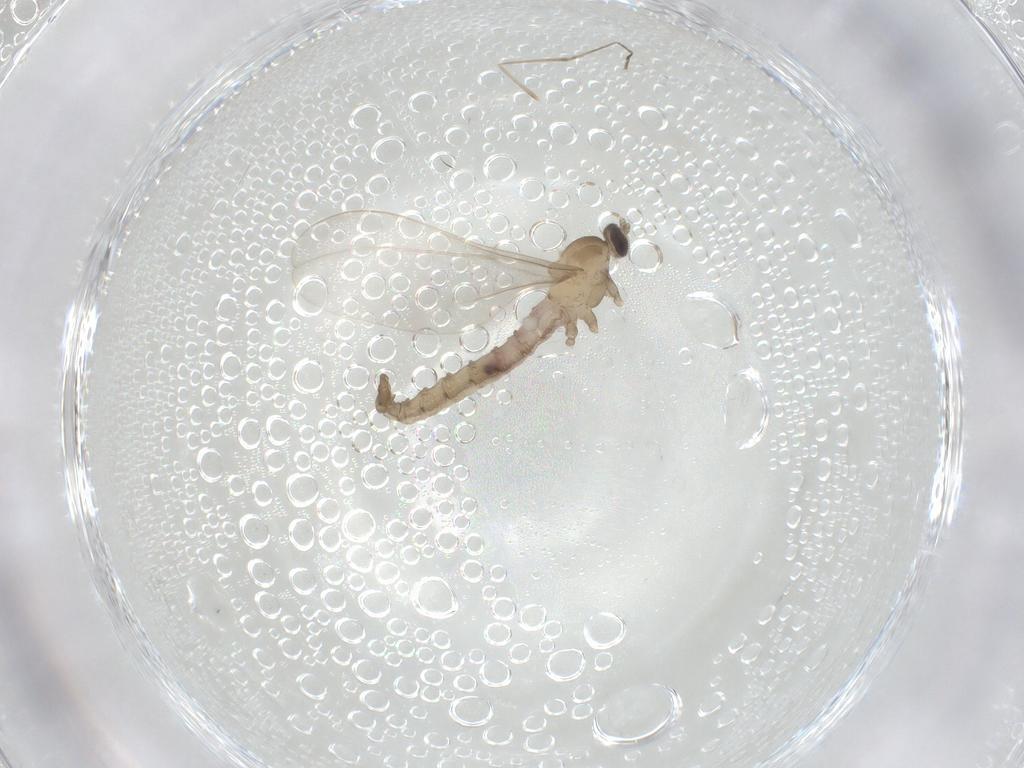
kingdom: Animalia
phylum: Arthropoda
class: Insecta
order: Diptera
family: Cecidomyiidae
